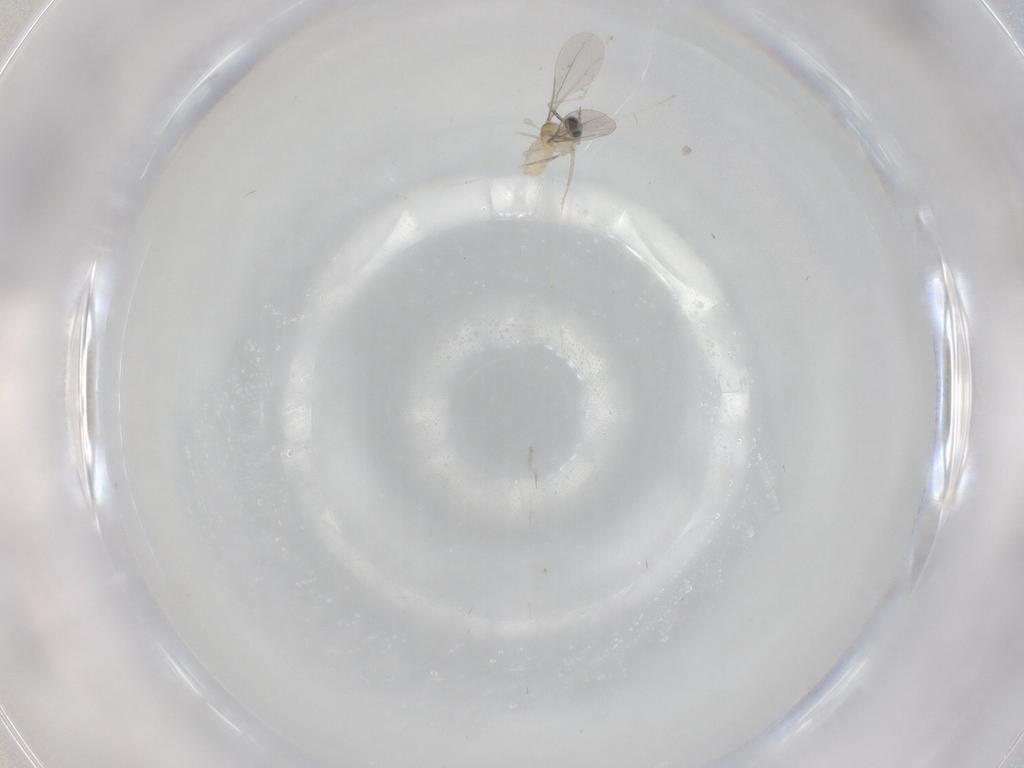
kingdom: Animalia
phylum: Arthropoda
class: Insecta
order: Diptera
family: Cecidomyiidae
